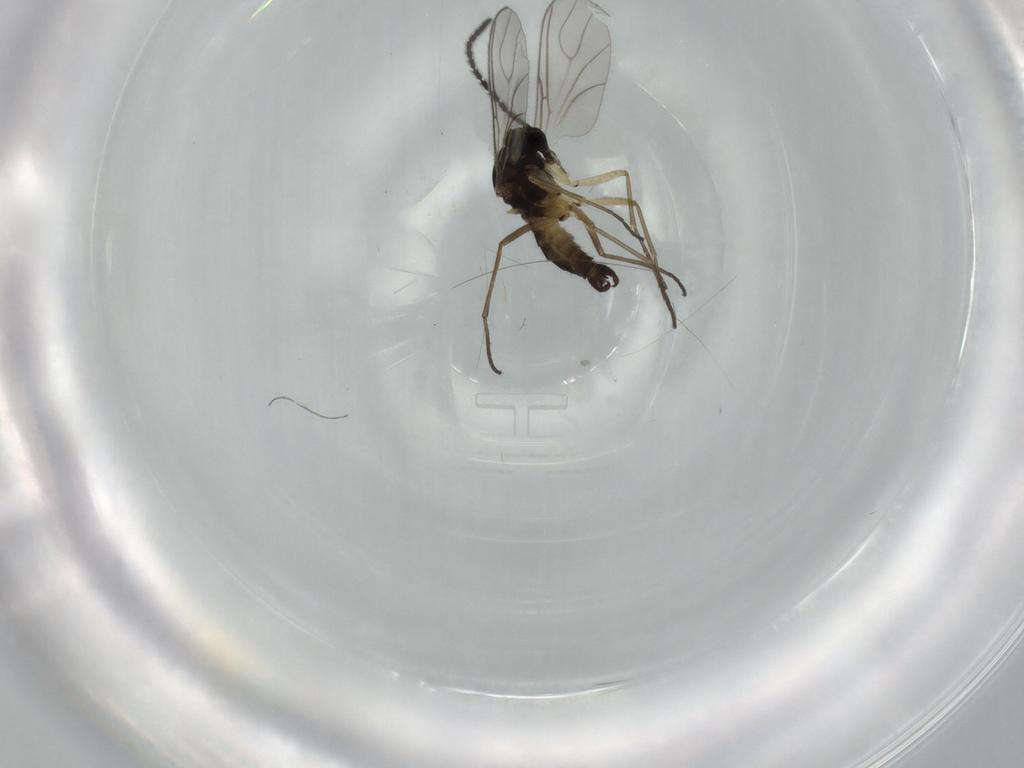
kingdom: Animalia
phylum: Arthropoda
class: Insecta
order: Diptera
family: Sciaridae
